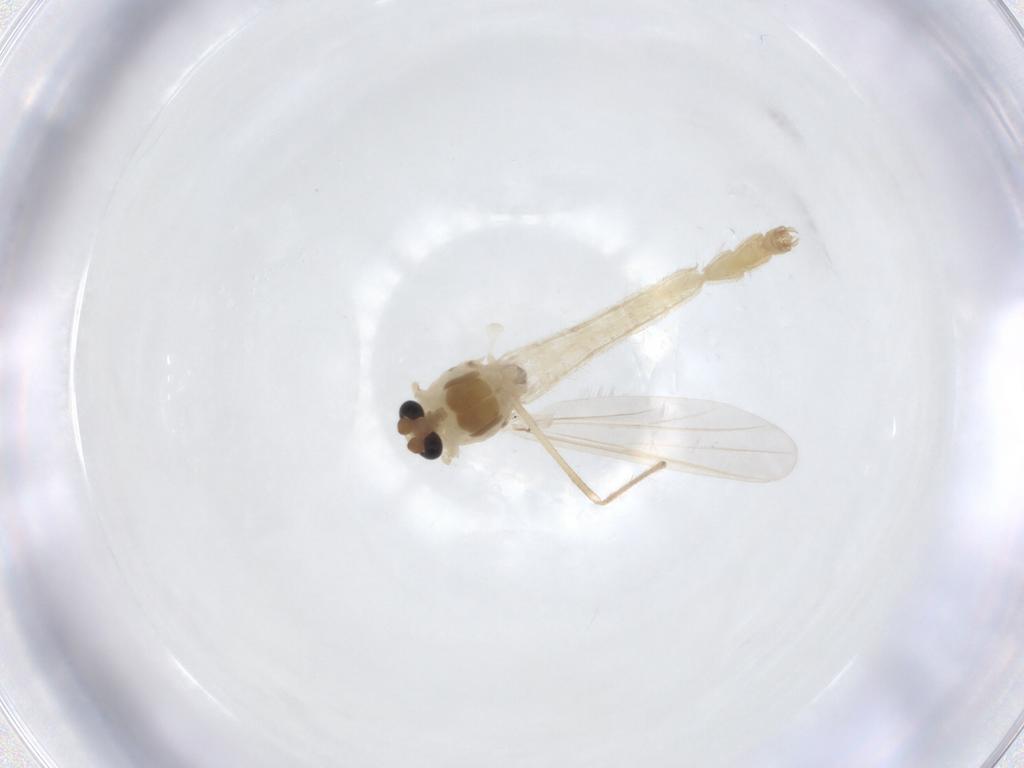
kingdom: Animalia
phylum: Arthropoda
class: Insecta
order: Diptera
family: Chironomidae
